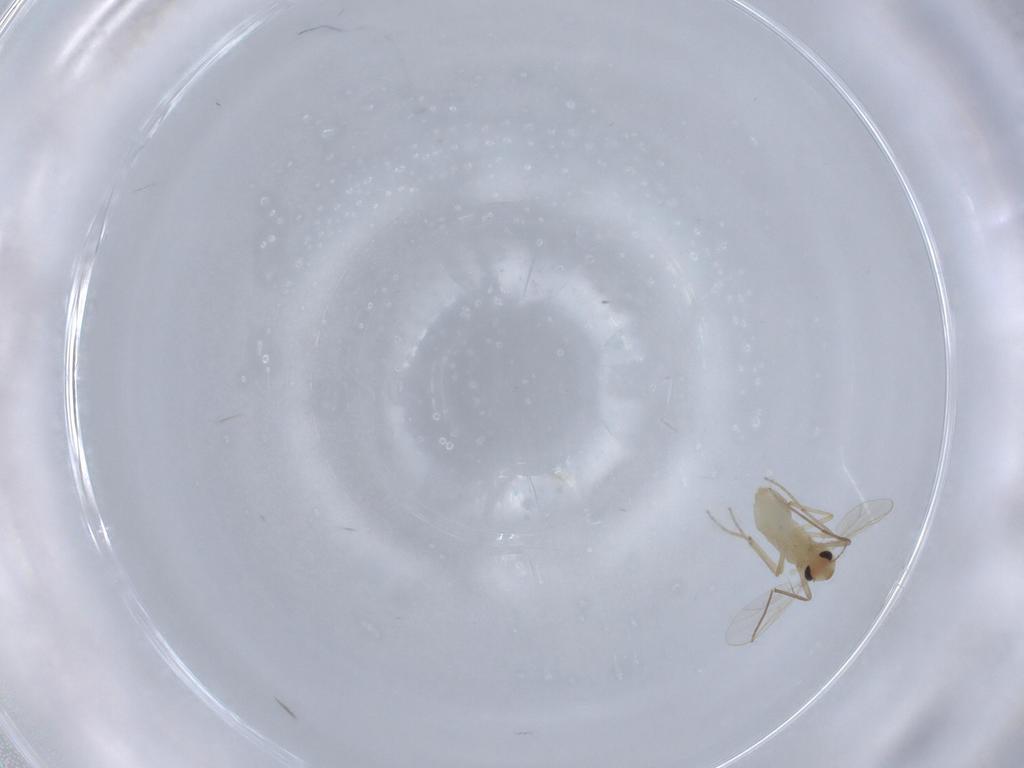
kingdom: Animalia
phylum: Arthropoda
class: Insecta
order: Diptera
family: Chironomidae
